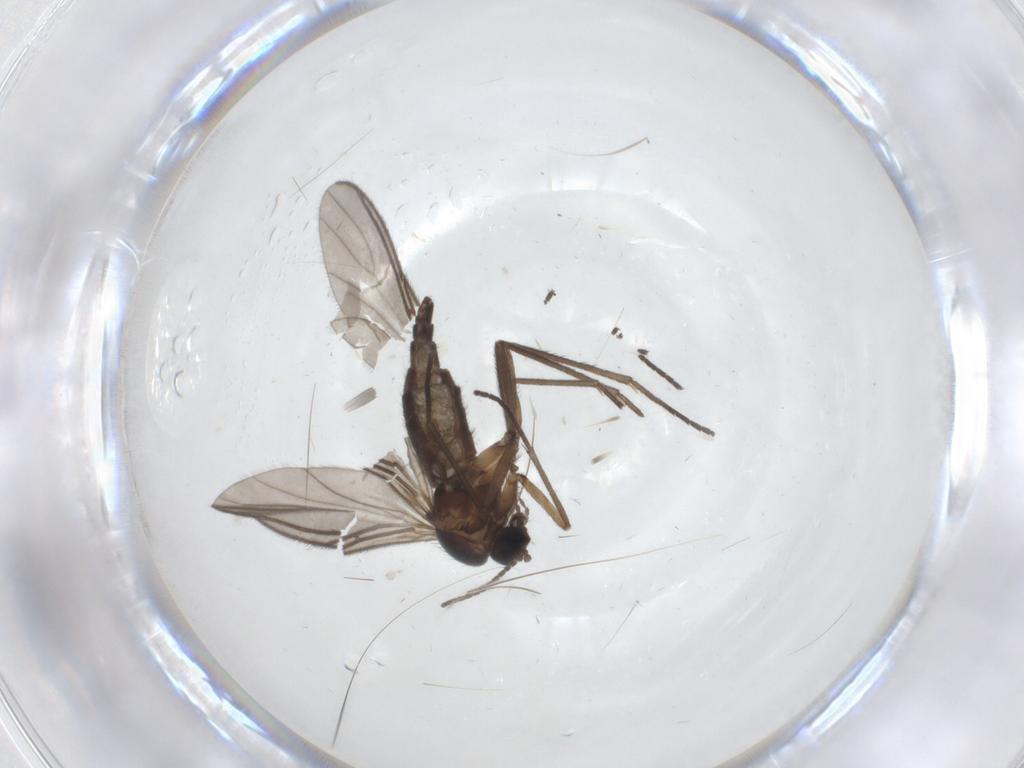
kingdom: Animalia
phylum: Arthropoda
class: Insecta
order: Diptera
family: Sciaridae
